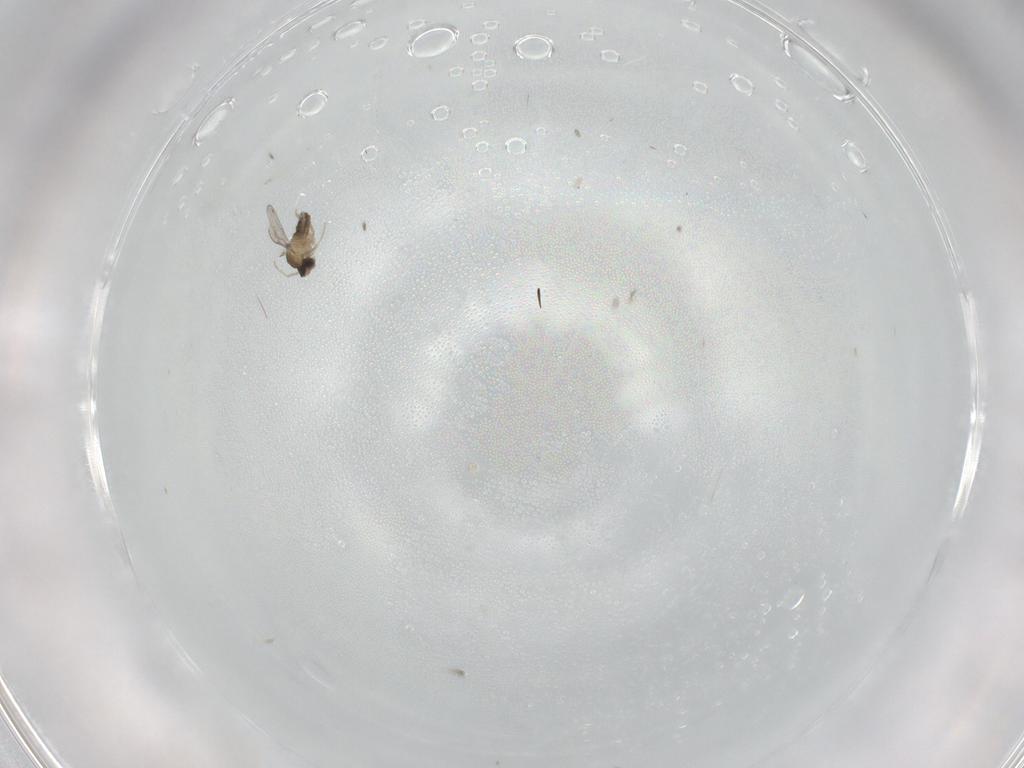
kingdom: Animalia
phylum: Arthropoda
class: Insecta
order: Diptera
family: Cecidomyiidae
